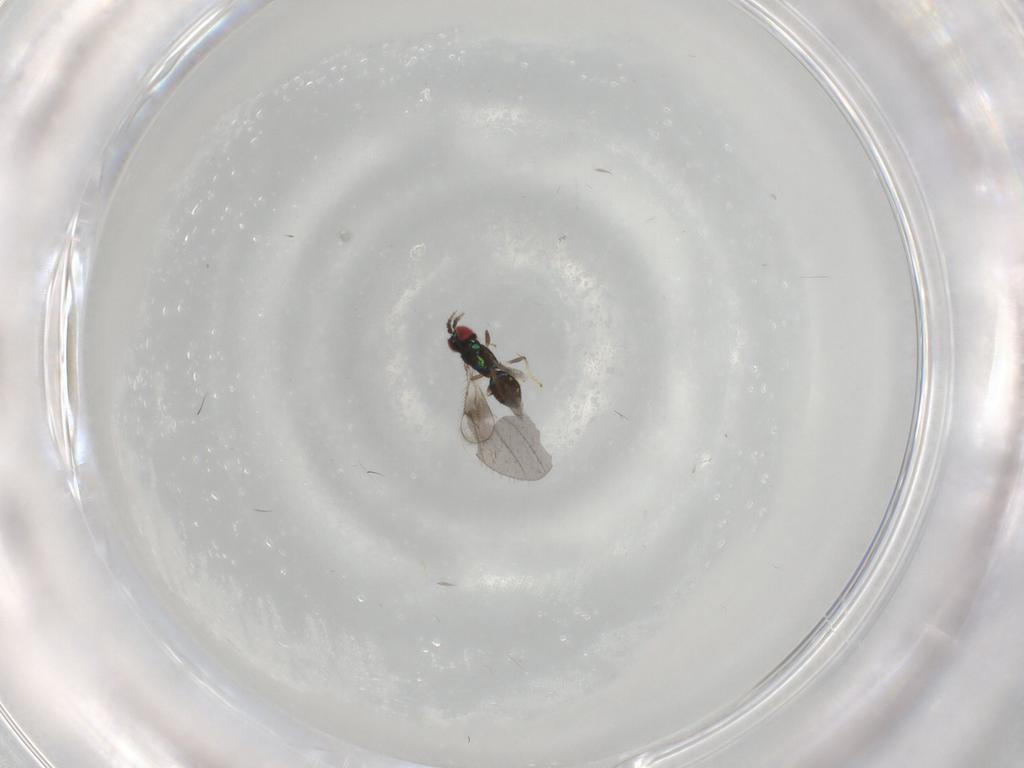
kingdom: Animalia
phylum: Arthropoda
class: Insecta
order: Hymenoptera
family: Eulophidae
